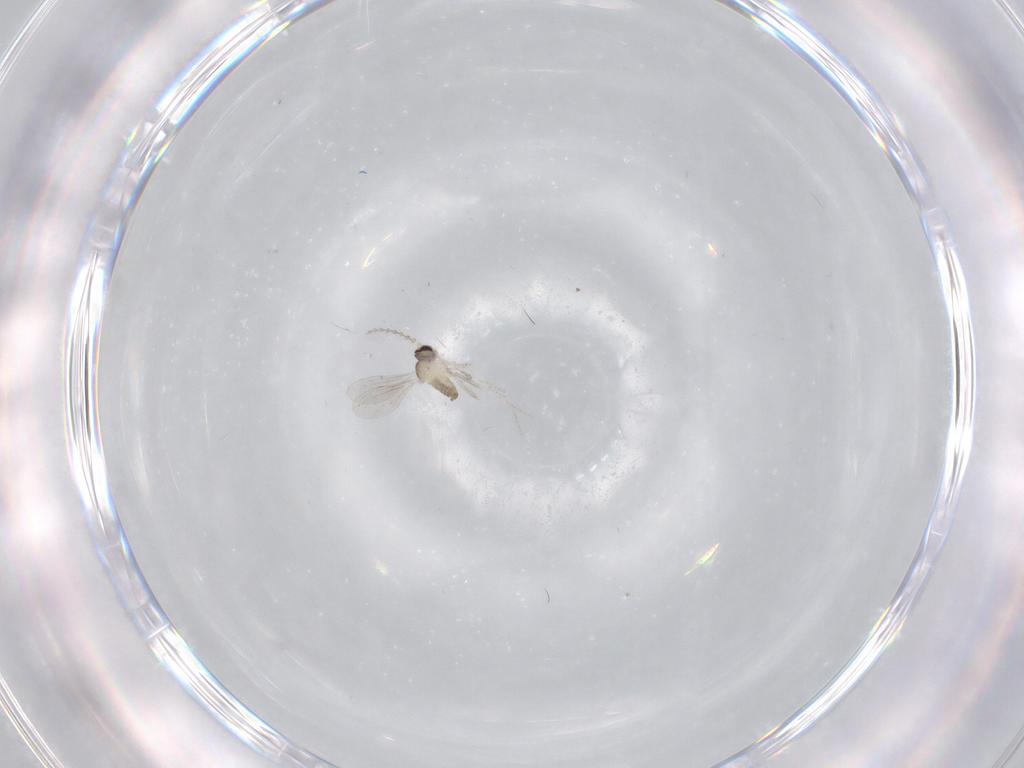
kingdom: Animalia
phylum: Arthropoda
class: Insecta
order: Diptera
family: Cecidomyiidae
